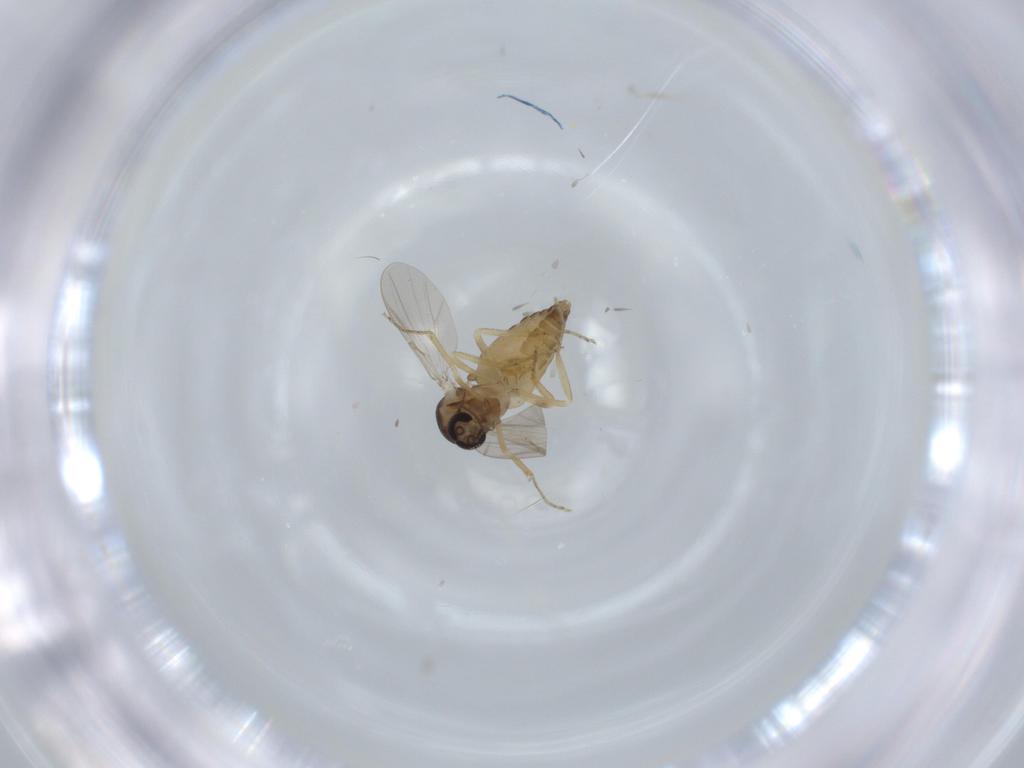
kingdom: Animalia
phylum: Arthropoda
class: Insecta
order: Diptera
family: Ceratopogonidae
